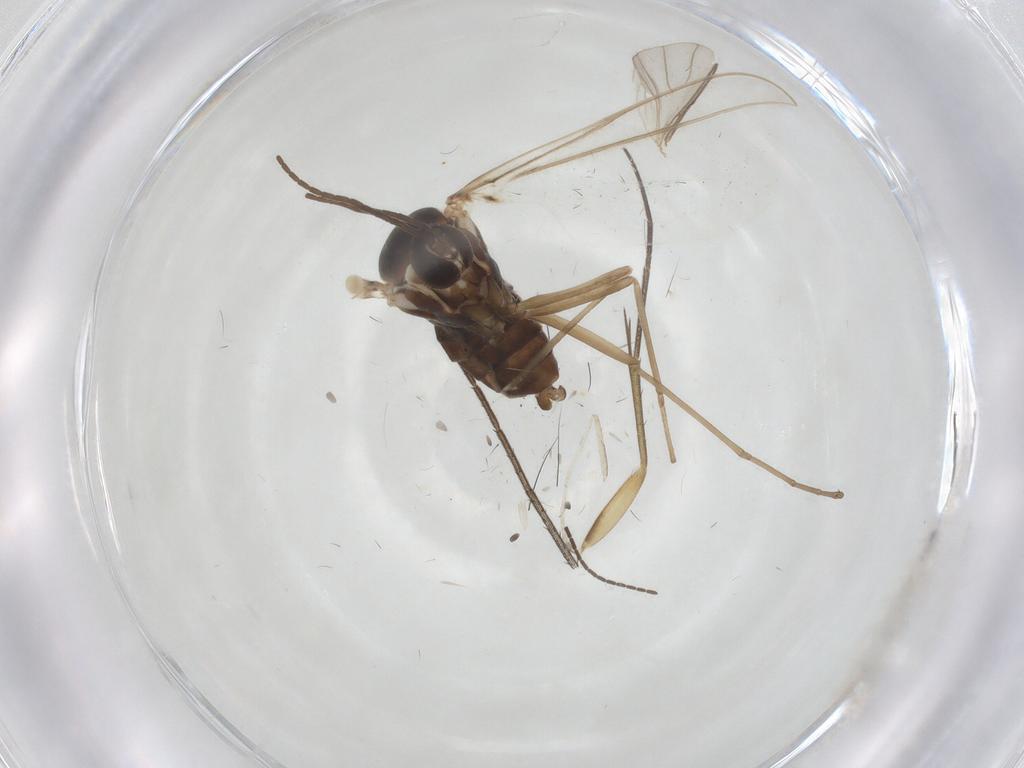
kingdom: Animalia
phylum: Arthropoda
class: Insecta
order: Diptera
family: Mycetophilidae
